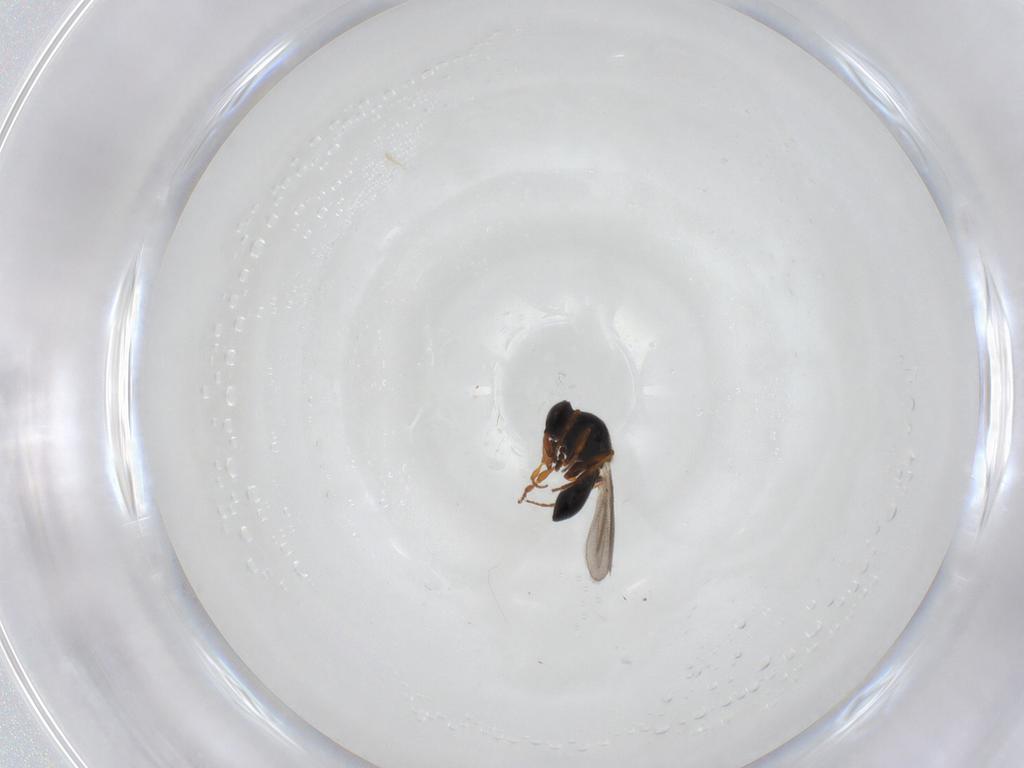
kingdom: Animalia
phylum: Arthropoda
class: Insecta
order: Hymenoptera
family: Platygastridae
